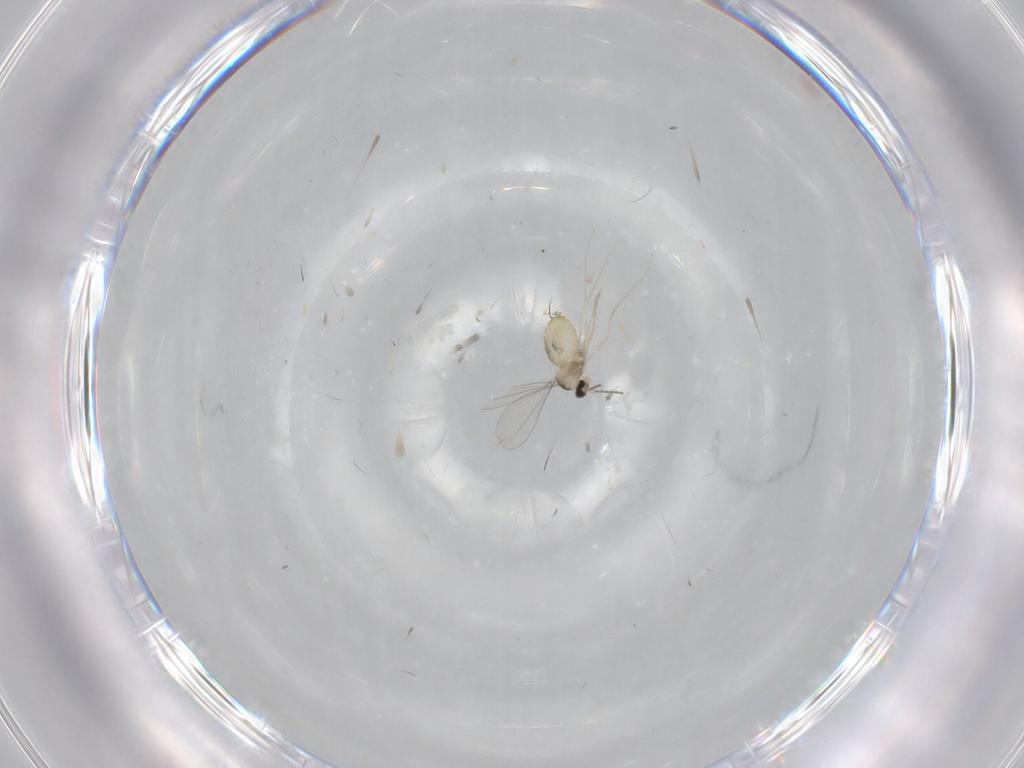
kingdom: Animalia
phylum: Arthropoda
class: Insecta
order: Diptera
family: Cecidomyiidae
